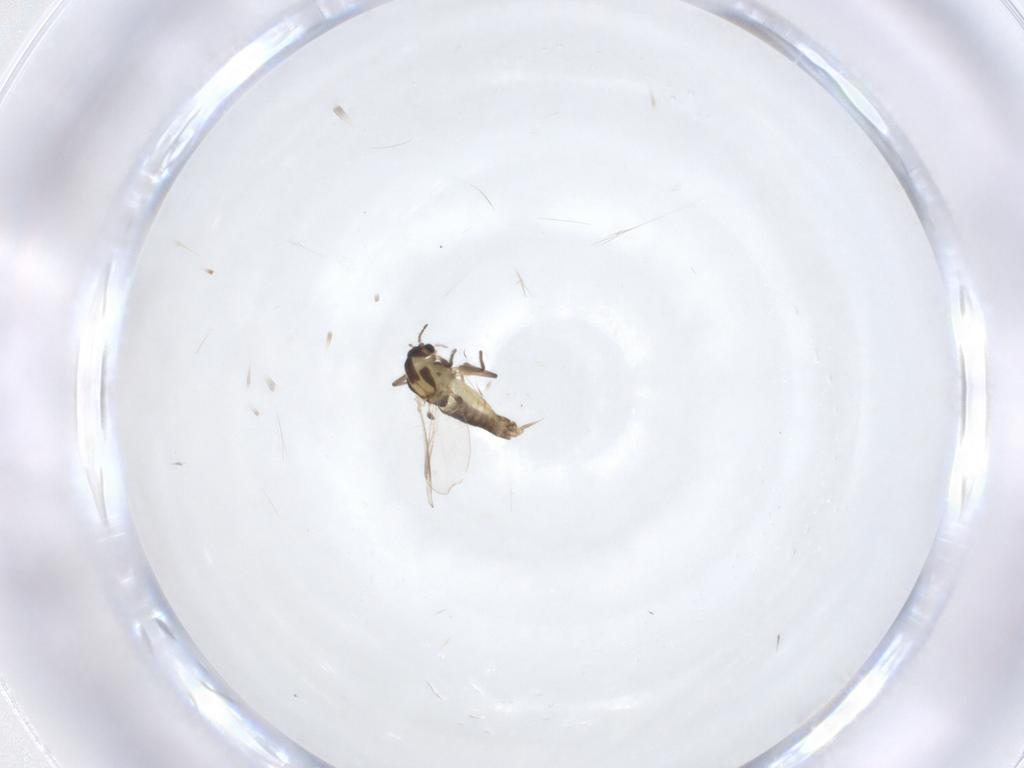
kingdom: Animalia
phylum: Arthropoda
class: Insecta
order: Diptera
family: Chironomidae
